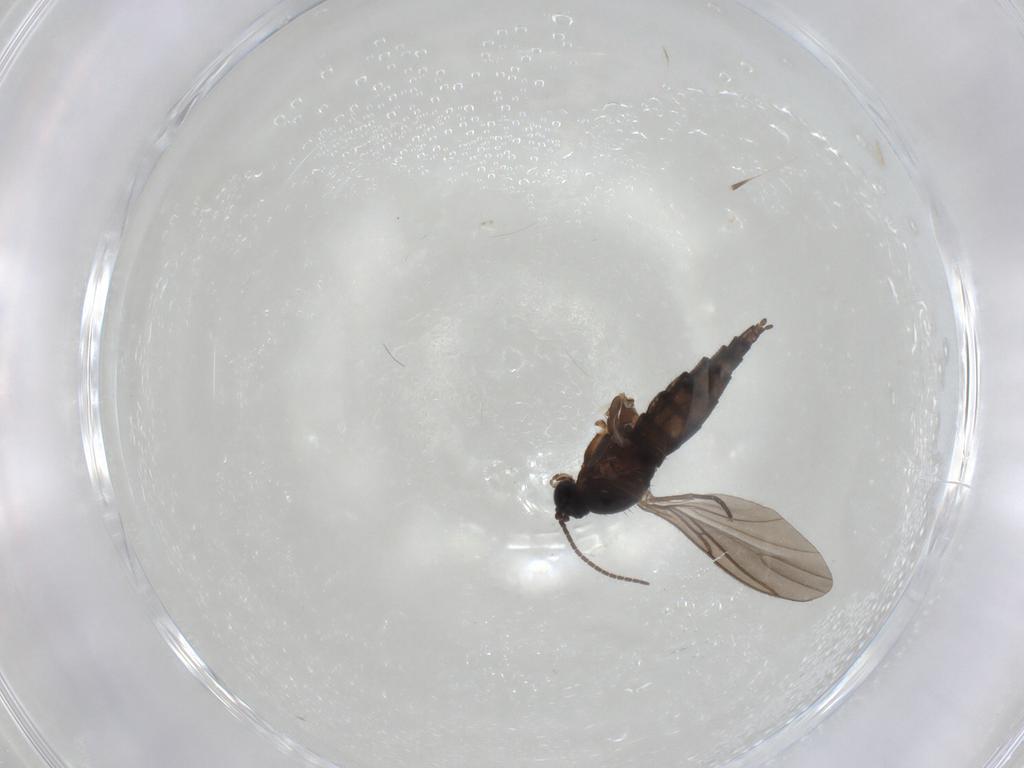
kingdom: Animalia
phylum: Arthropoda
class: Insecta
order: Diptera
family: Sciaridae
